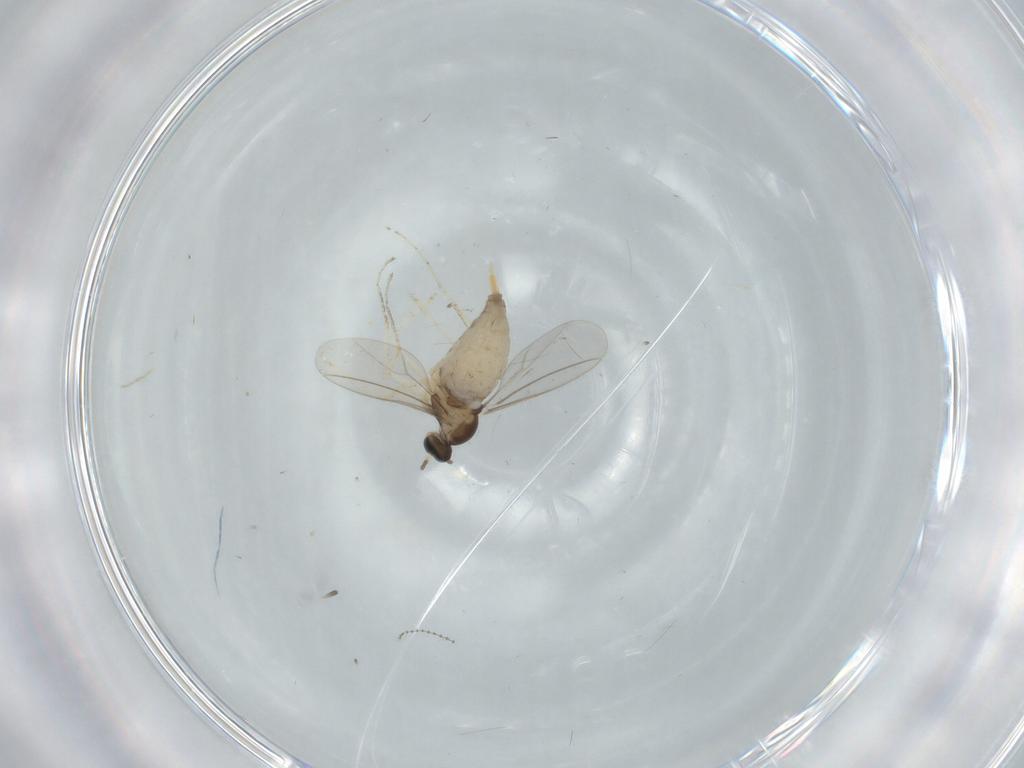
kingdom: Animalia
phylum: Arthropoda
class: Insecta
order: Diptera
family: Cecidomyiidae
